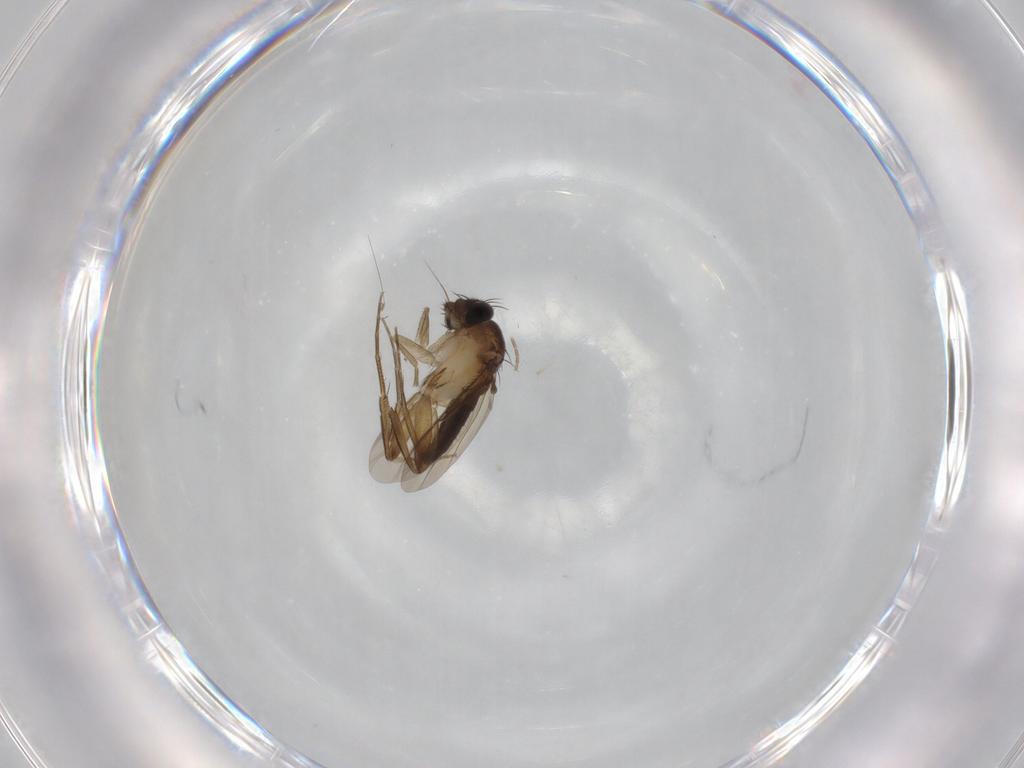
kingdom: Animalia
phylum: Arthropoda
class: Insecta
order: Diptera
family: Phoridae
